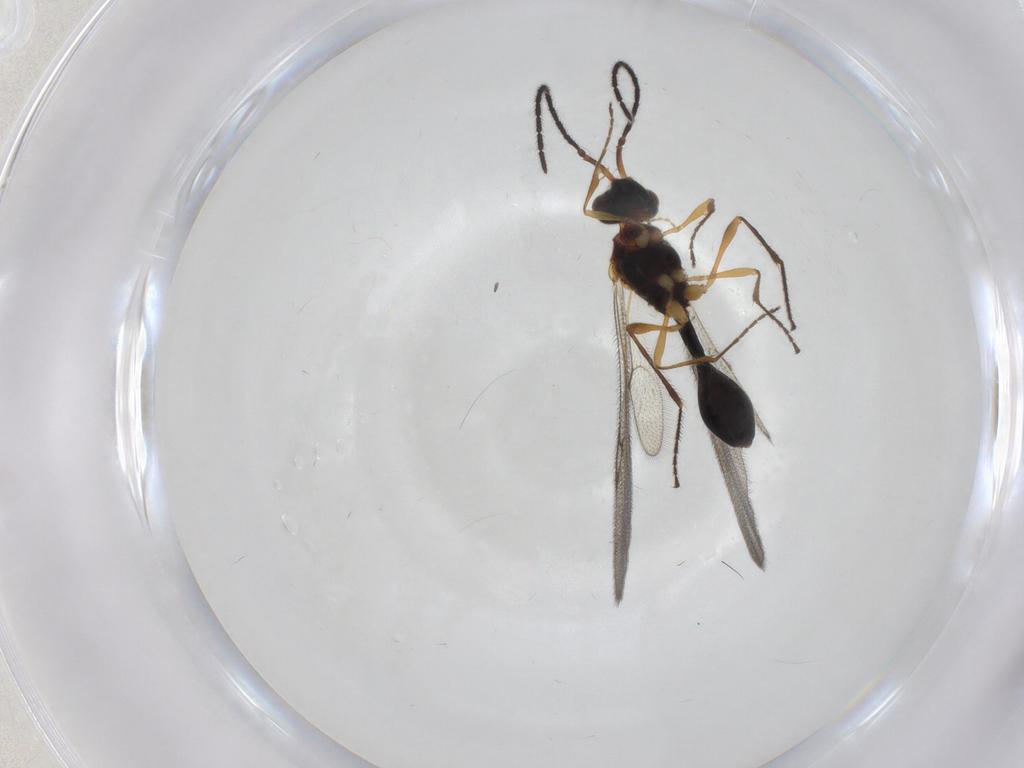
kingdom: Animalia
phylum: Arthropoda
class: Insecta
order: Hymenoptera
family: Diapriidae
